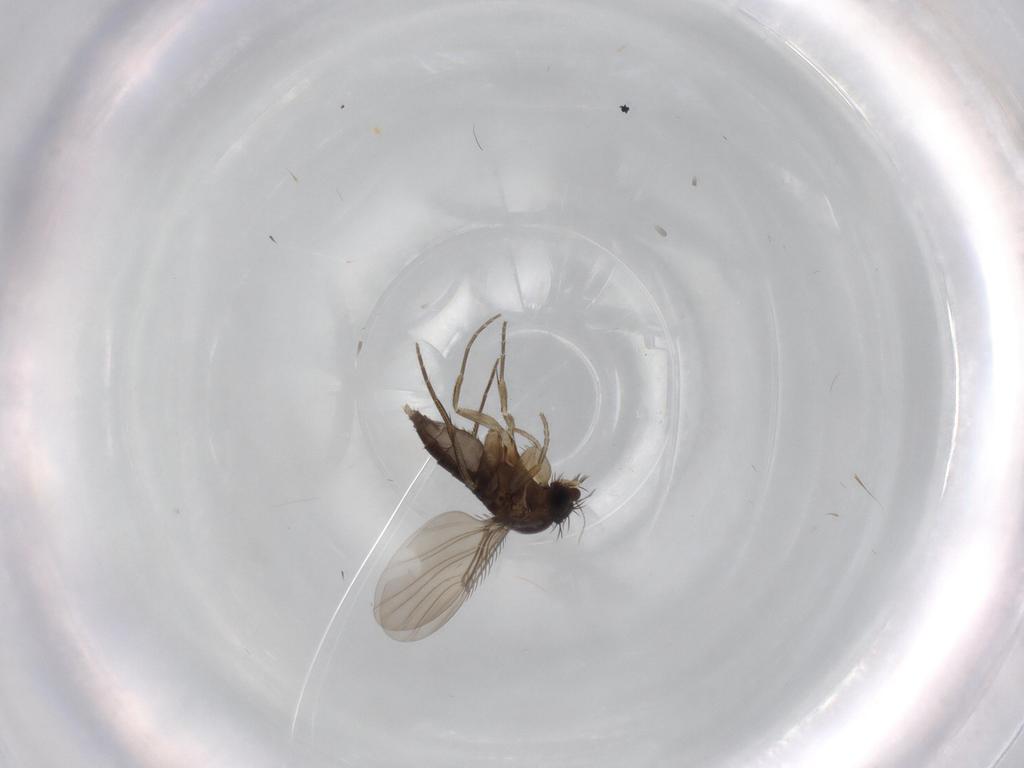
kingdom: Animalia
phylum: Arthropoda
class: Insecta
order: Diptera
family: Phoridae
